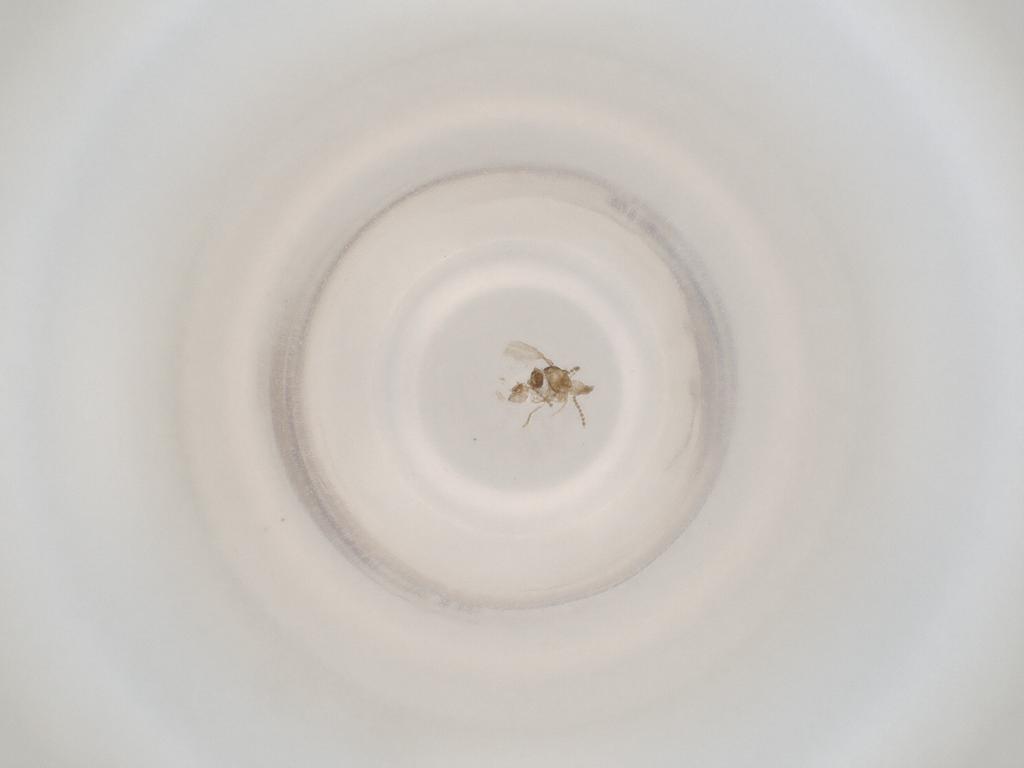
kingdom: Animalia
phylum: Arthropoda
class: Insecta
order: Diptera
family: Cecidomyiidae
